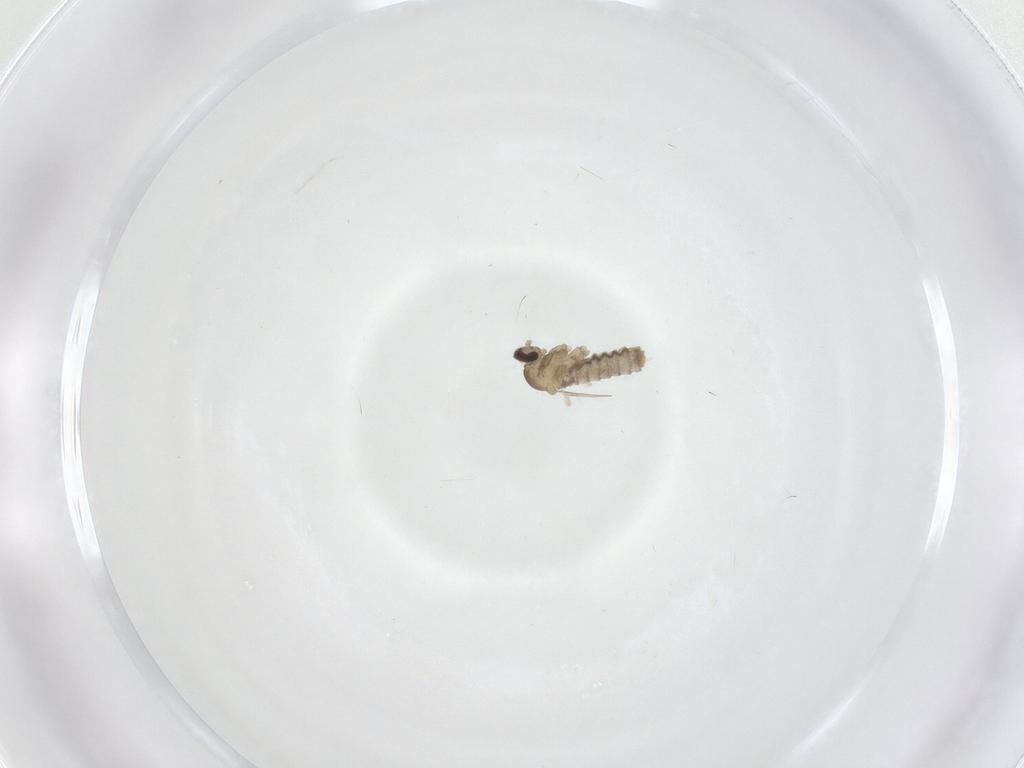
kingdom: Animalia
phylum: Arthropoda
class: Insecta
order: Diptera
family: Cecidomyiidae
